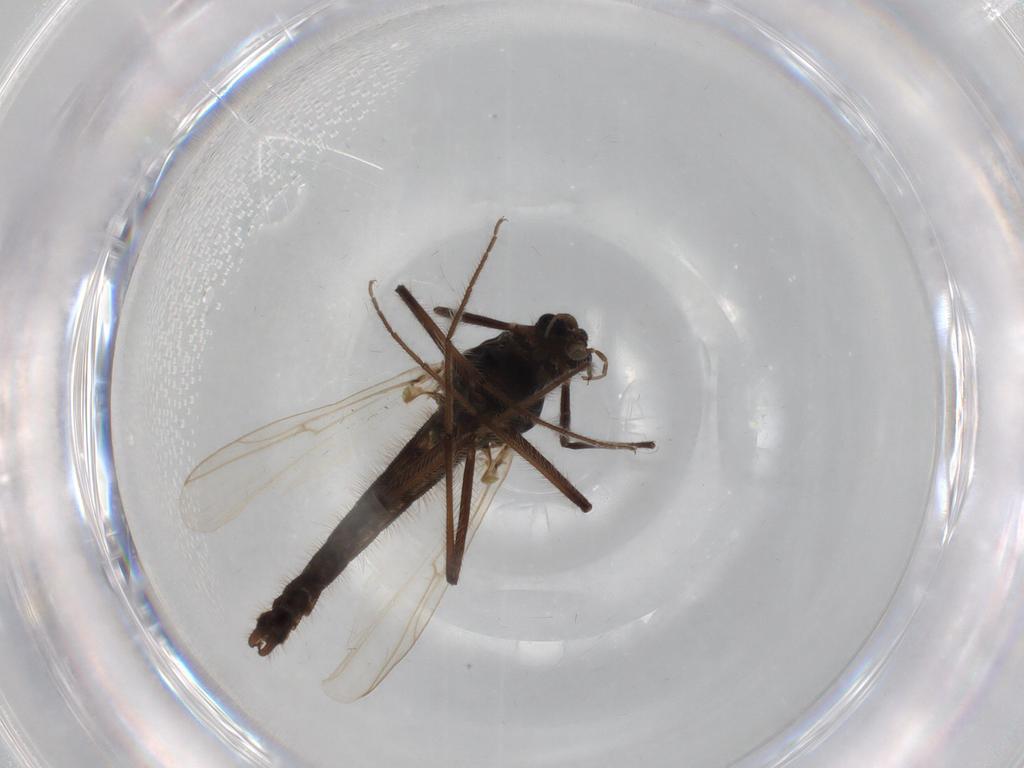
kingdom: Animalia
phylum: Arthropoda
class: Insecta
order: Diptera
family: Chironomidae
